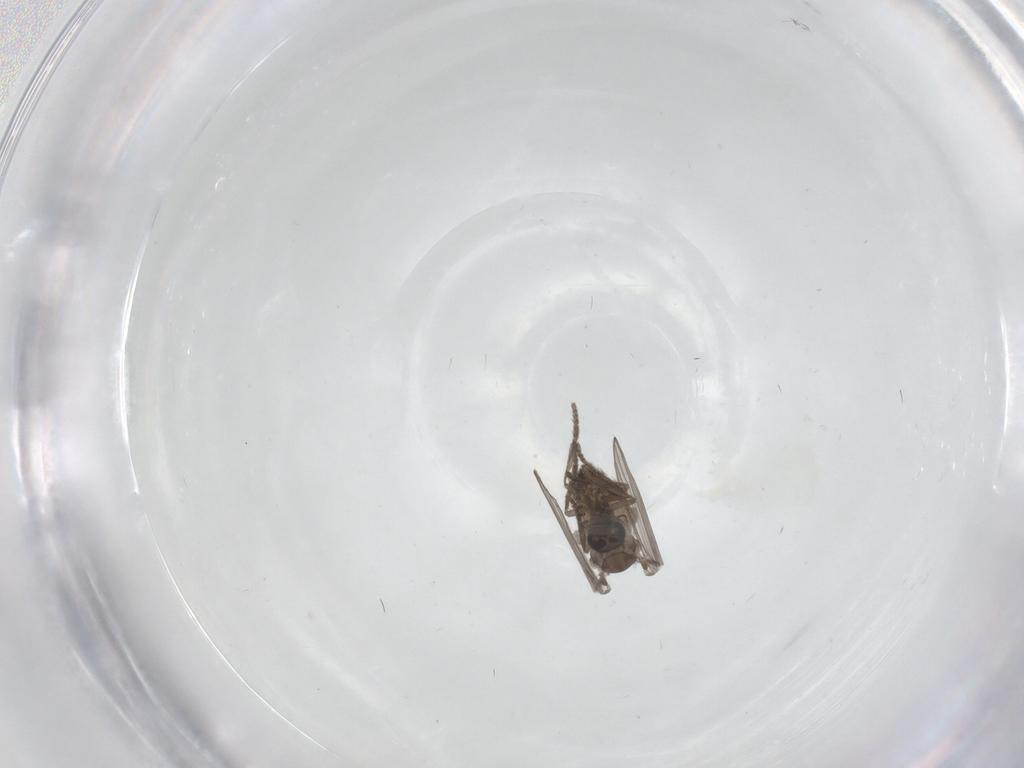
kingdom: Animalia
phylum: Arthropoda
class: Insecta
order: Diptera
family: Psychodidae
